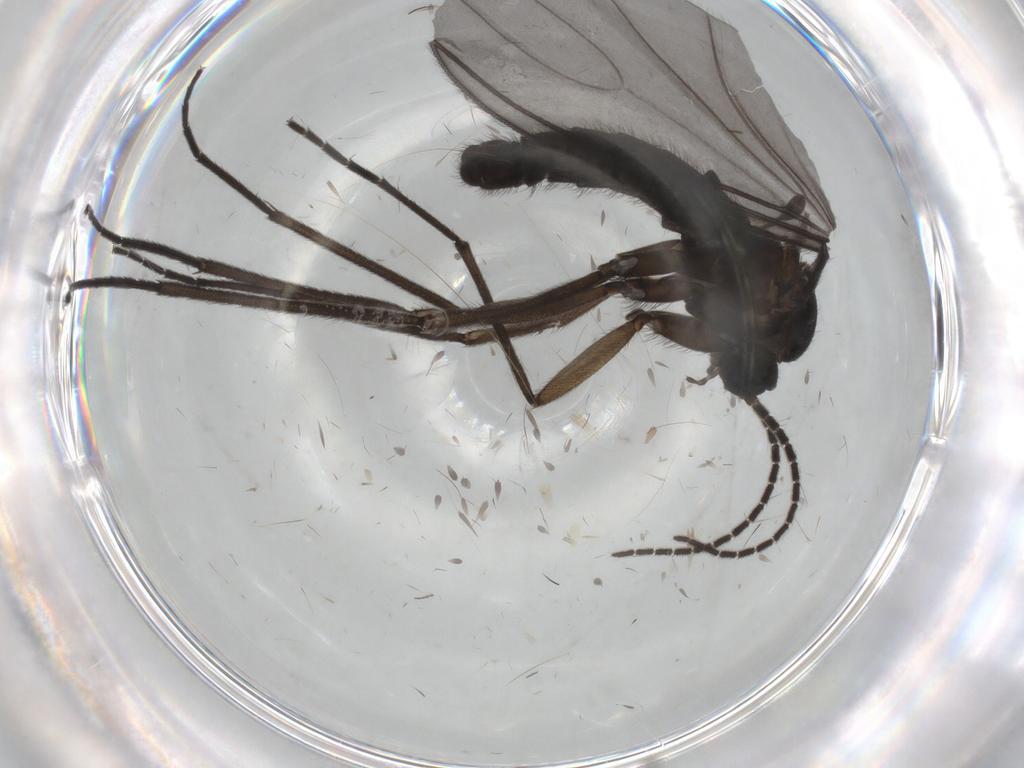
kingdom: Animalia
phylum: Arthropoda
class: Insecta
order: Diptera
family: Sciaridae
